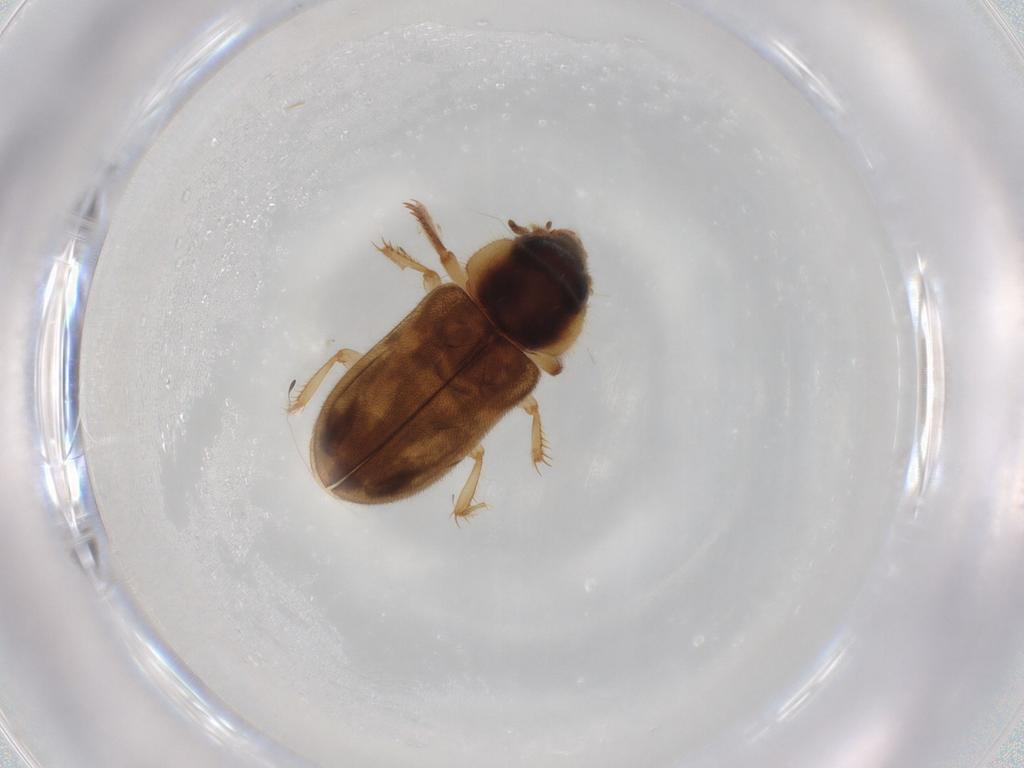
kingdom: Animalia
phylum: Arthropoda
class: Insecta
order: Coleoptera
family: Heteroceridae
